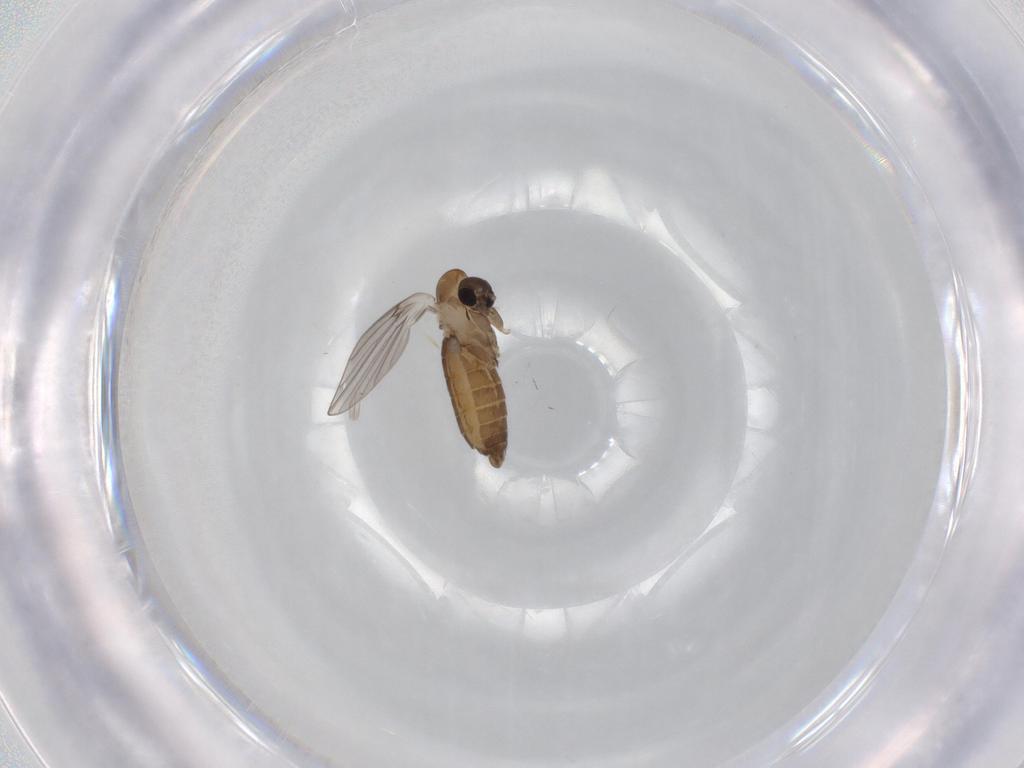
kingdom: Animalia
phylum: Arthropoda
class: Insecta
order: Diptera
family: Psychodidae
